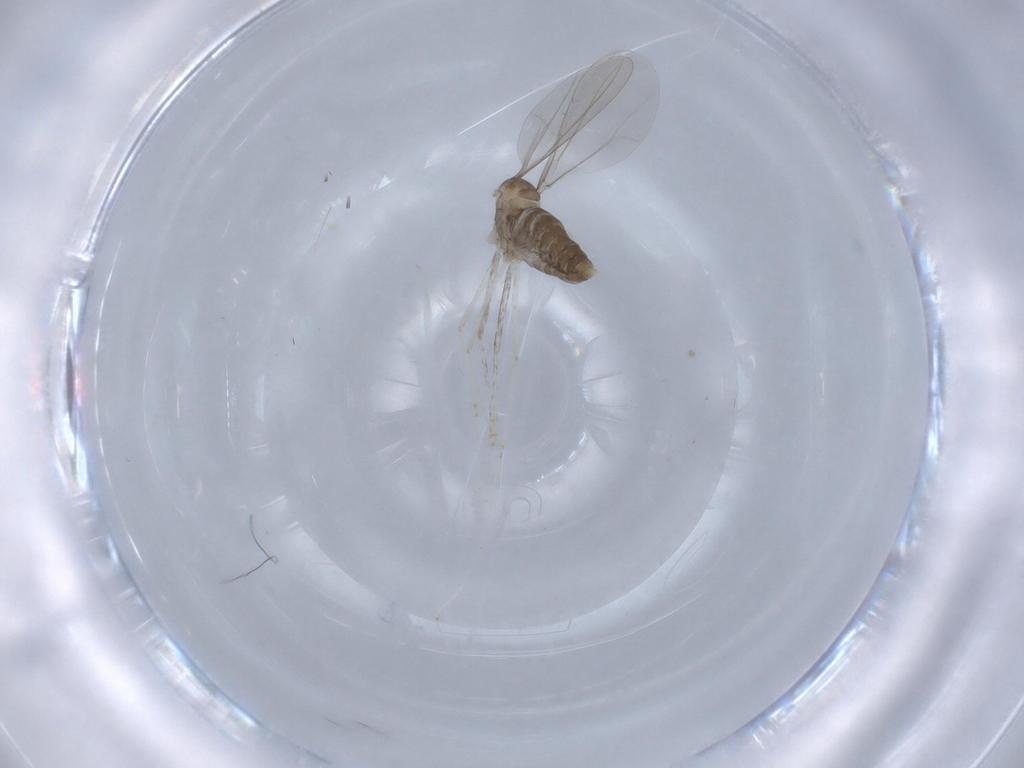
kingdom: Animalia
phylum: Arthropoda
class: Insecta
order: Diptera
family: Cecidomyiidae
